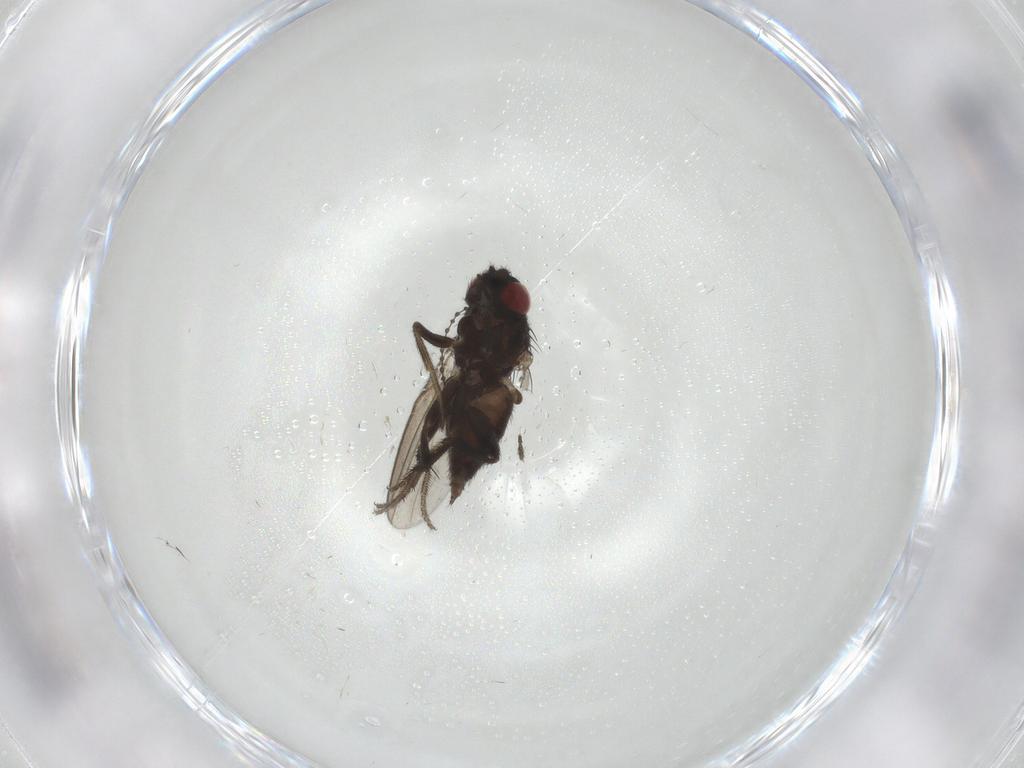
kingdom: Animalia
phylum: Arthropoda
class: Insecta
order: Diptera
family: Milichiidae
